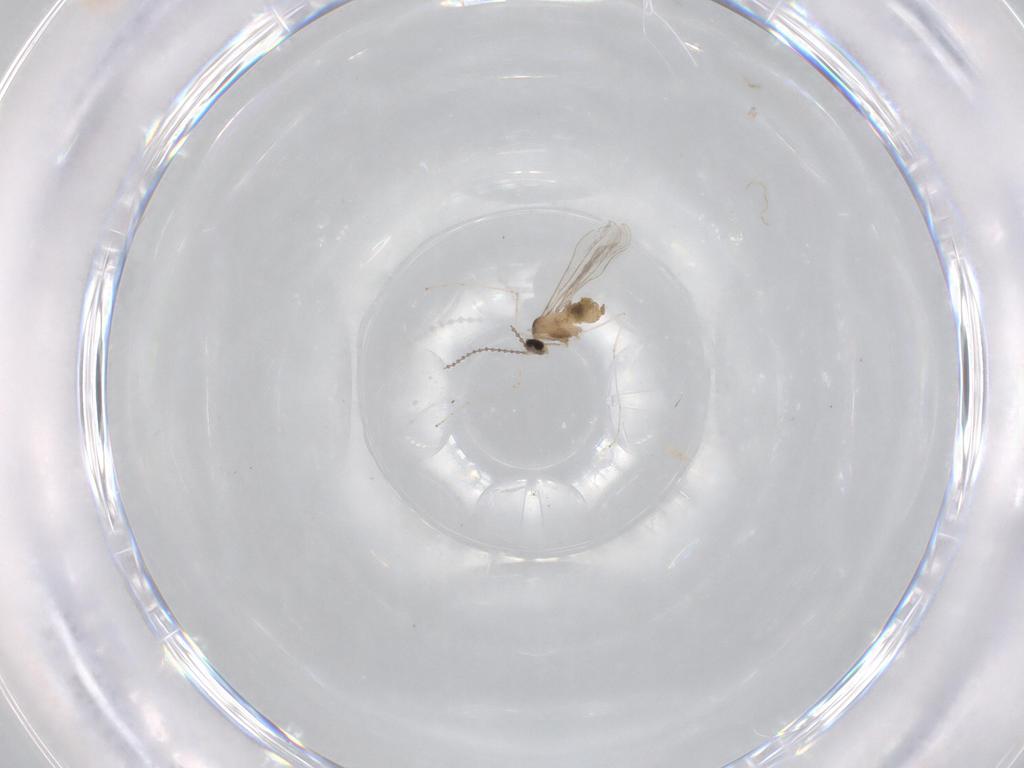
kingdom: Animalia
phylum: Arthropoda
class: Insecta
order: Diptera
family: Cecidomyiidae
